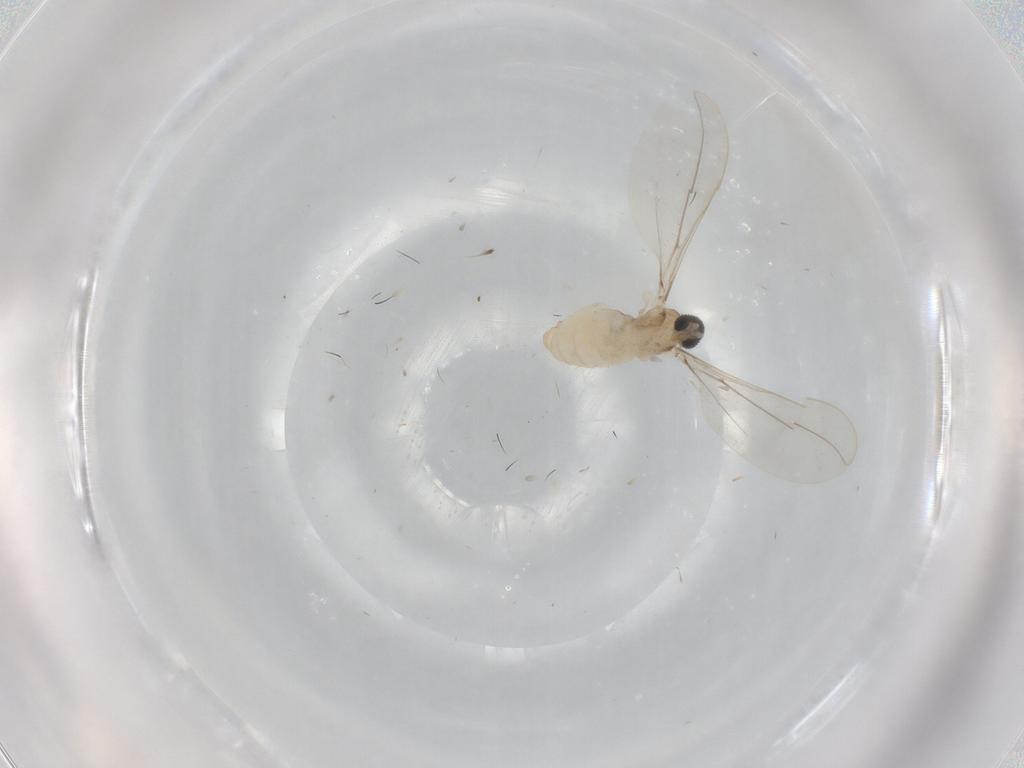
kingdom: Animalia
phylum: Arthropoda
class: Insecta
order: Diptera
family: Cecidomyiidae
